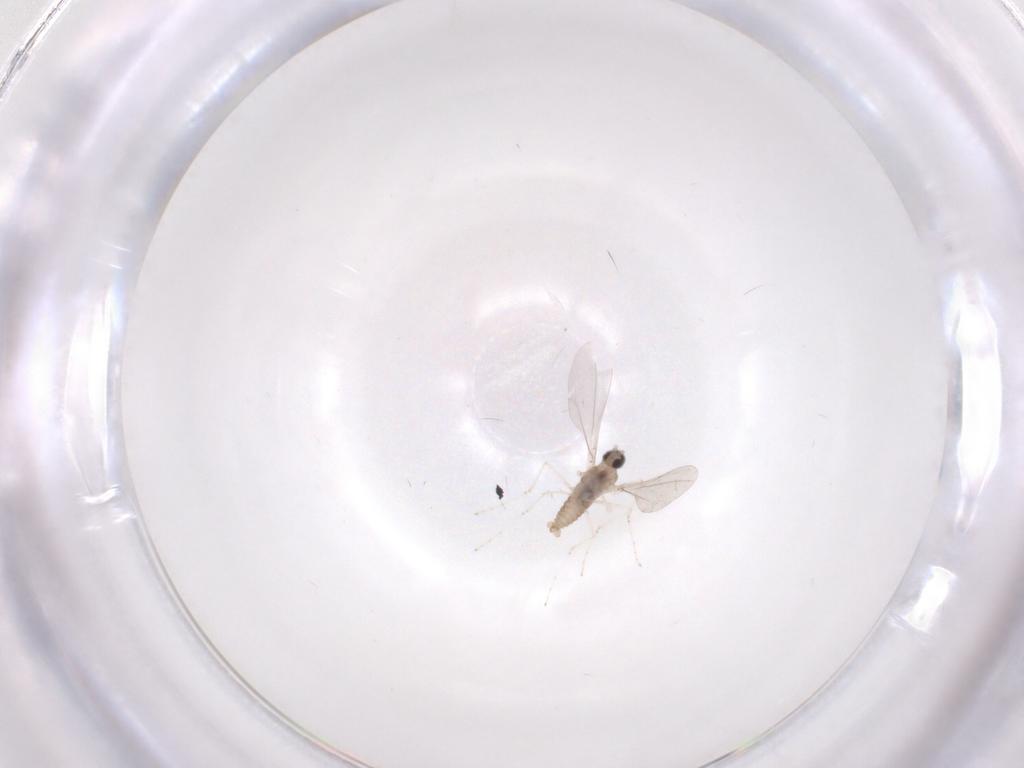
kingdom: Animalia
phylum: Arthropoda
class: Insecta
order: Diptera
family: Cecidomyiidae
